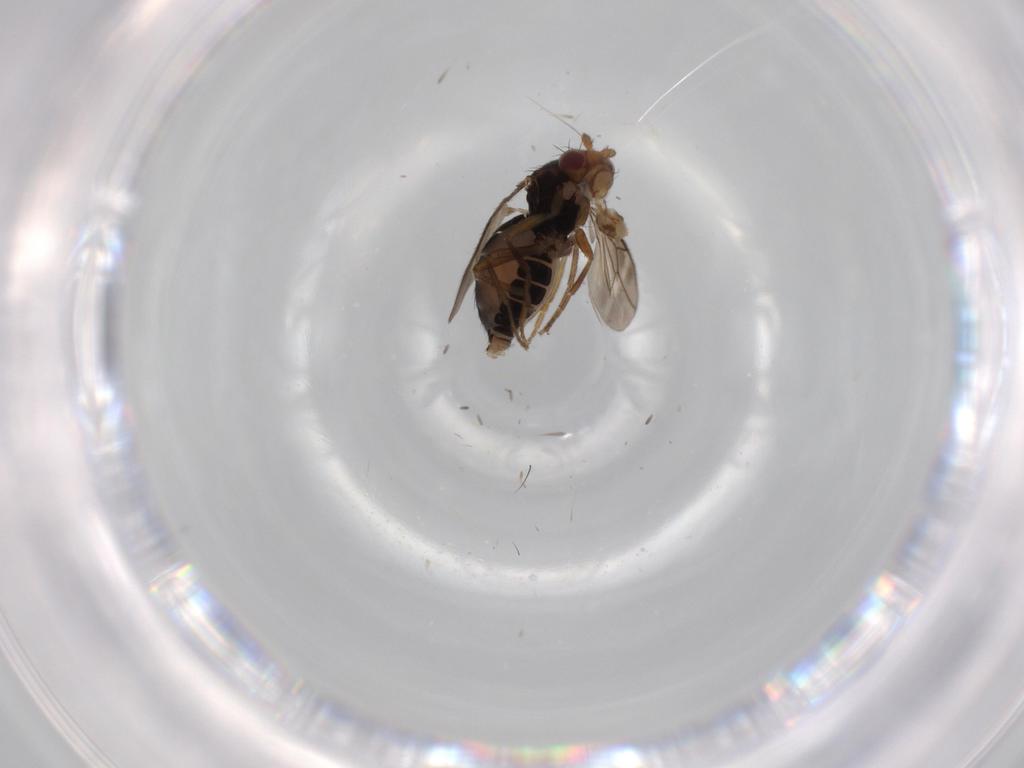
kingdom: Animalia
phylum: Arthropoda
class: Insecta
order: Diptera
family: Sphaeroceridae
